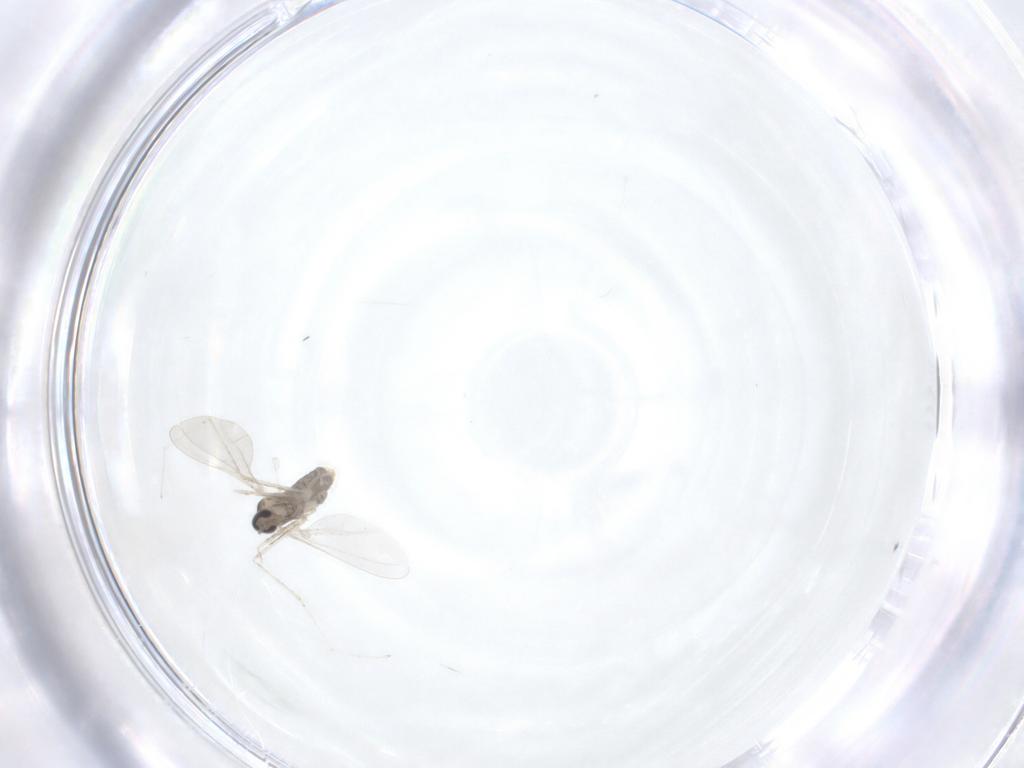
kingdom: Animalia
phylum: Arthropoda
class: Insecta
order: Diptera
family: Cecidomyiidae
